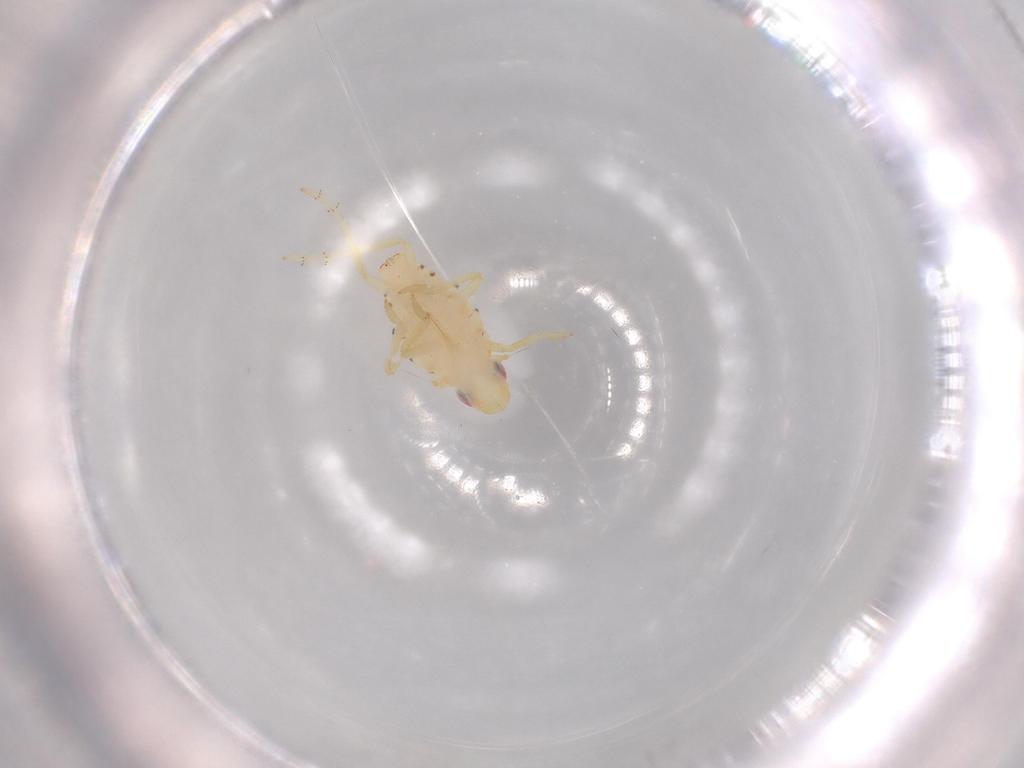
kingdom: Animalia
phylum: Arthropoda
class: Insecta
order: Hemiptera
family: Tropiduchidae
